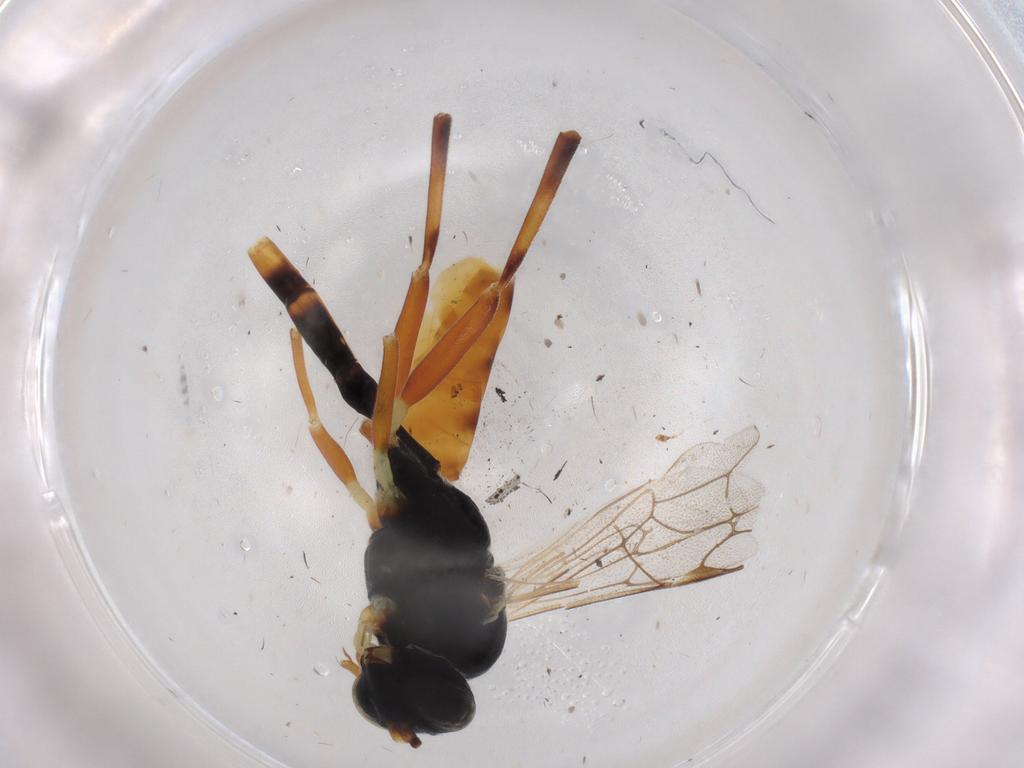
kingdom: Animalia
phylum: Arthropoda
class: Insecta
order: Hymenoptera
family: Ichneumonidae
